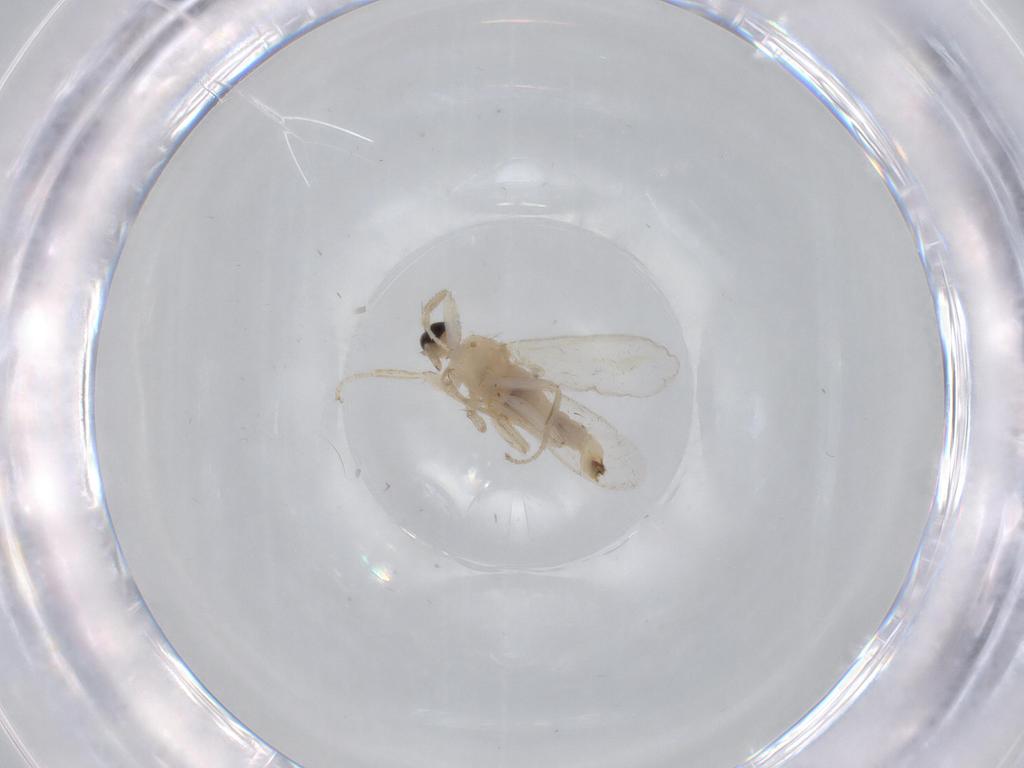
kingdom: Animalia
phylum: Arthropoda
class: Insecta
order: Diptera
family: Hybotidae
